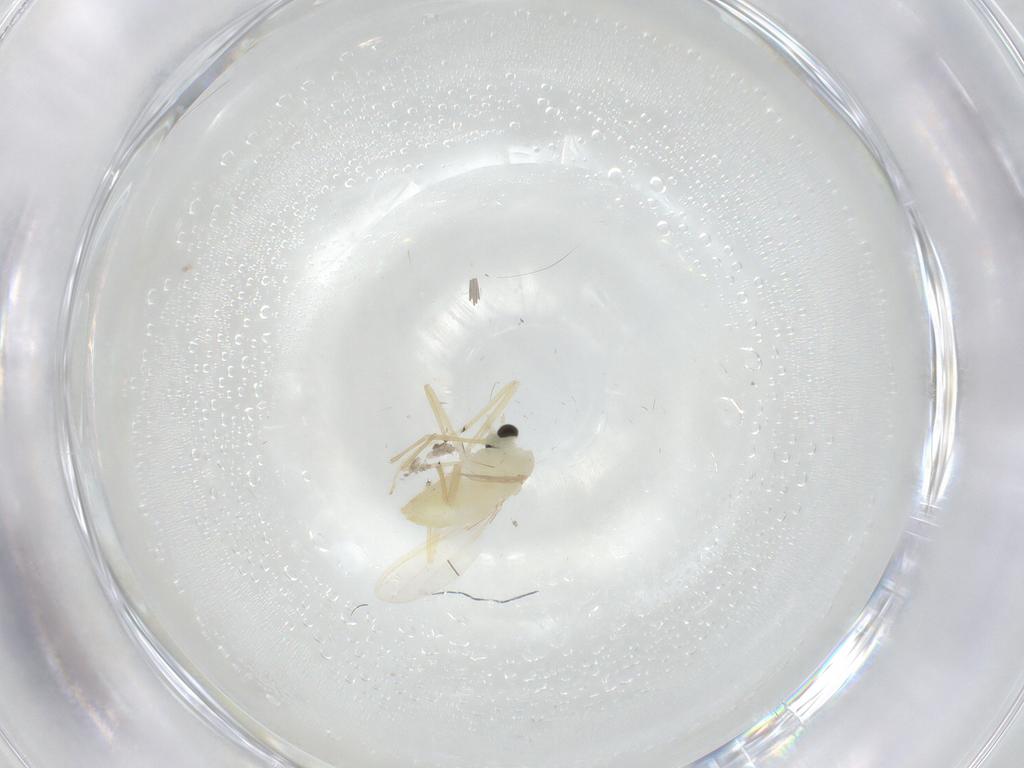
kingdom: Animalia
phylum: Arthropoda
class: Insecta
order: Diptera
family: Chironomidae
